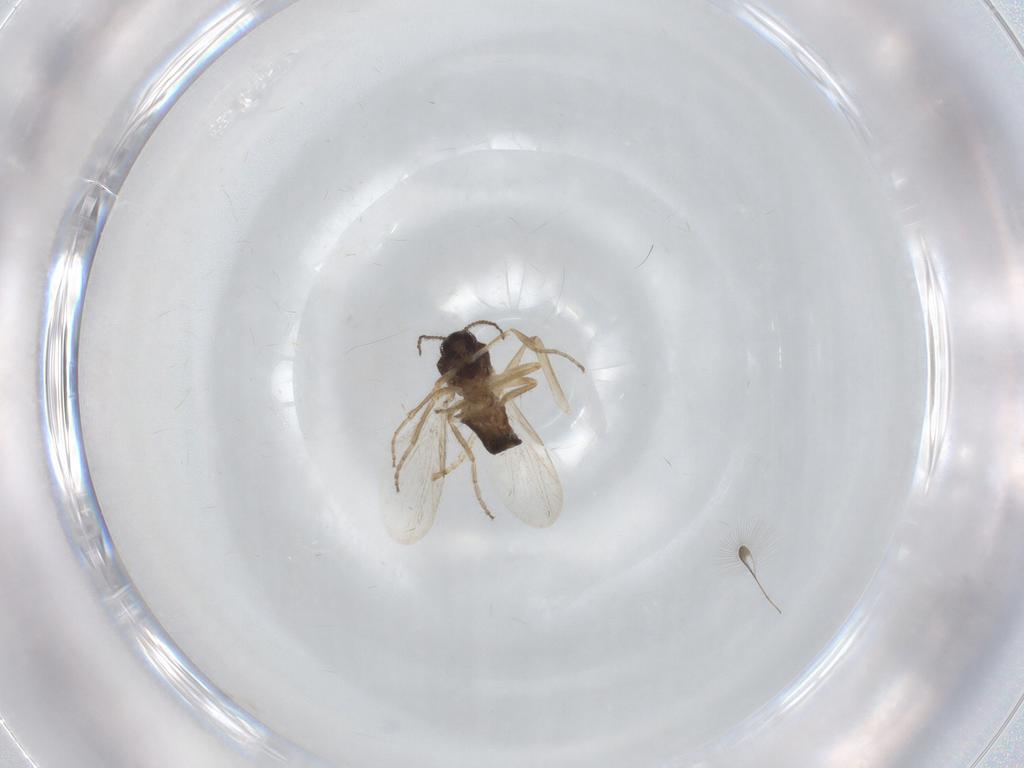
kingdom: Animalia
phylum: Arthropoda
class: Insecta
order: Diptera
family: Ceratopogonidae
